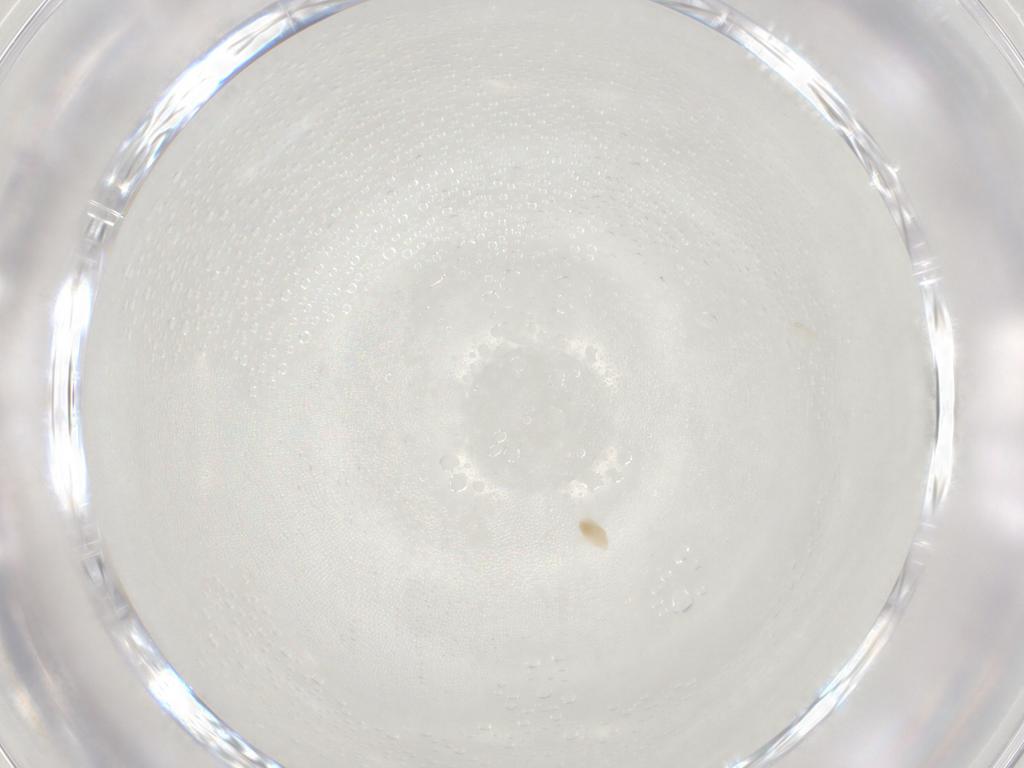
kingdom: Animalia
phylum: Arthropoda
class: Arachnida
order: Trombidiformes
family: Eupodidae
